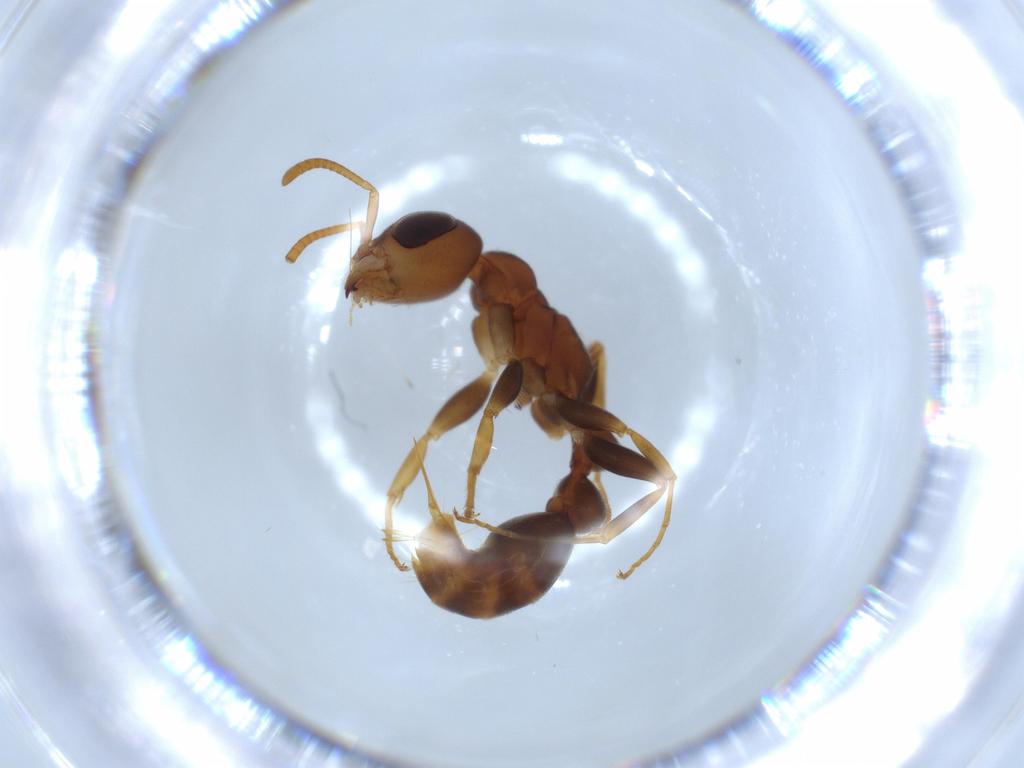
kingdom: Animalia
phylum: Arthropoda
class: Insecta
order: Hymenoptera
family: Formicidae
